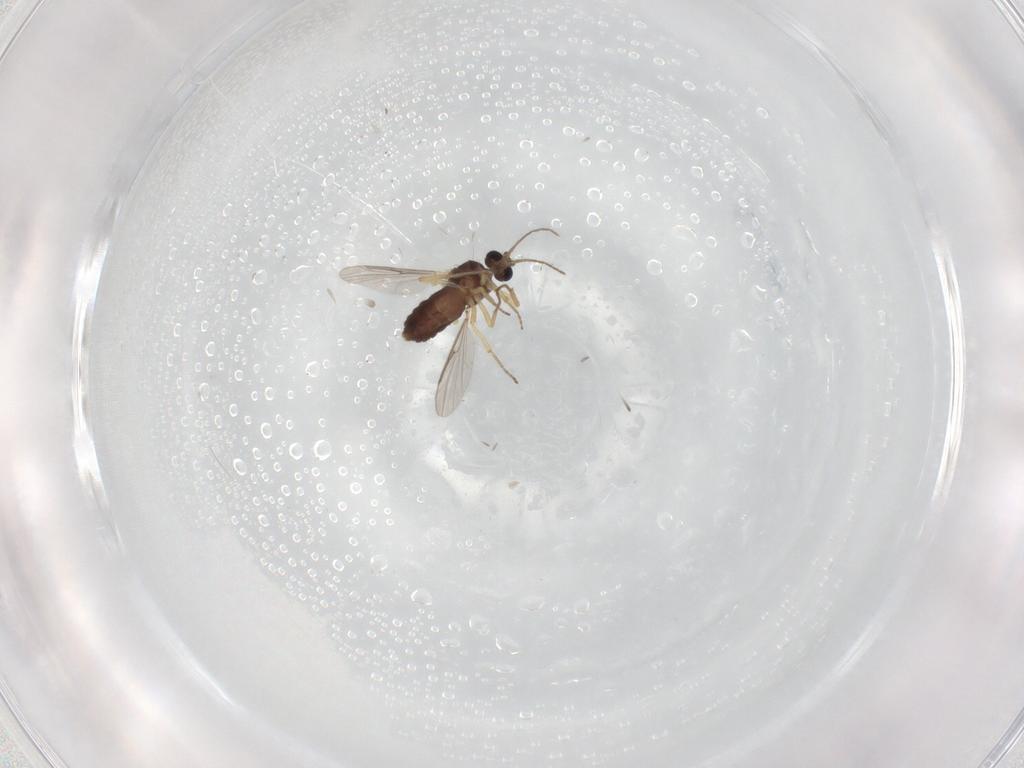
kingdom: Animalia
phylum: Arthropoda
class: Insecta
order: Diptera
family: Ceratopogonidae
